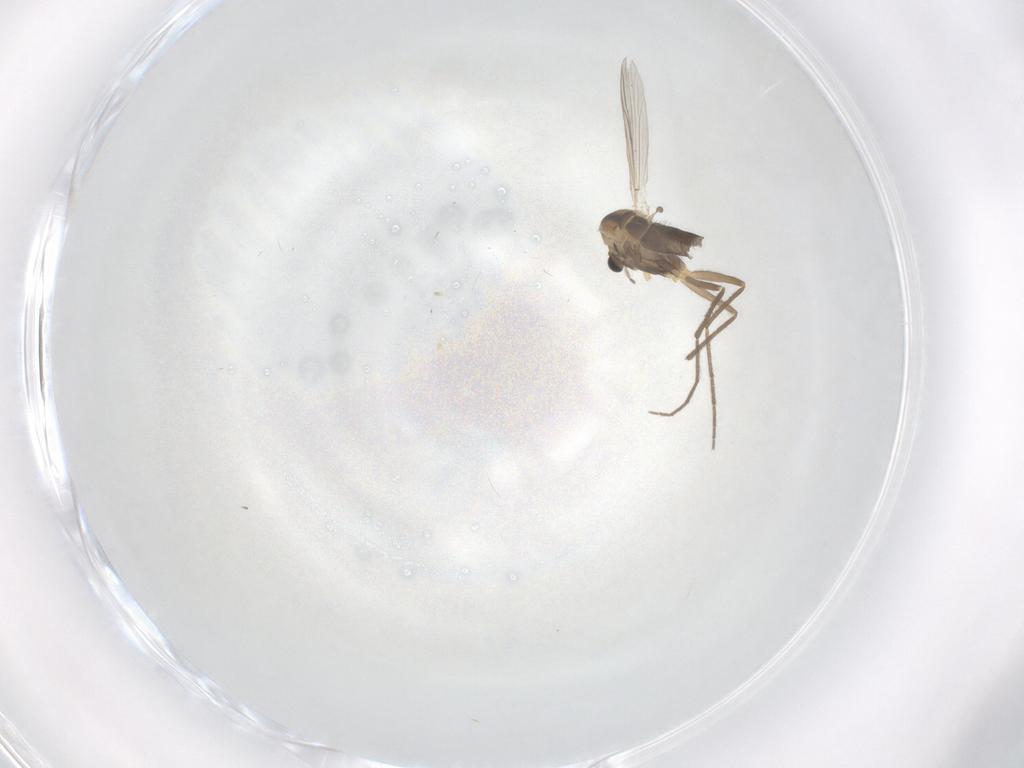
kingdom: Animalia
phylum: Arthropoda
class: Insecta
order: Diptera
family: Chironomidae
